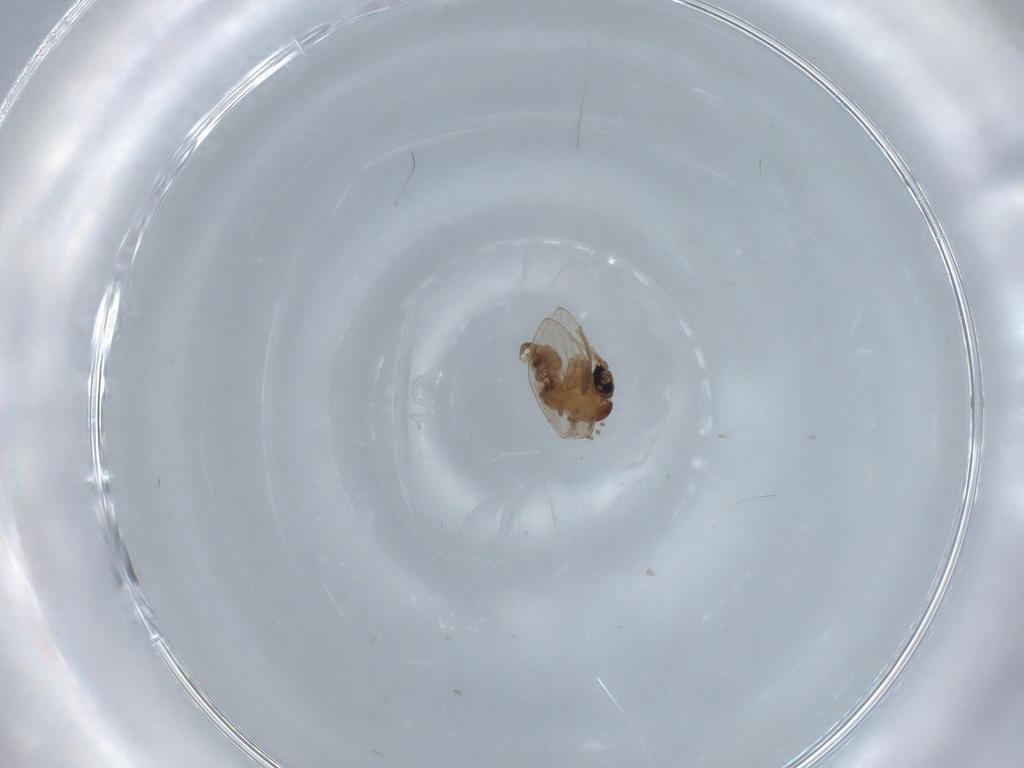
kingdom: Animalia
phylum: Arthropoda
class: Insecta
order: Diptera
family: Psychodidae
